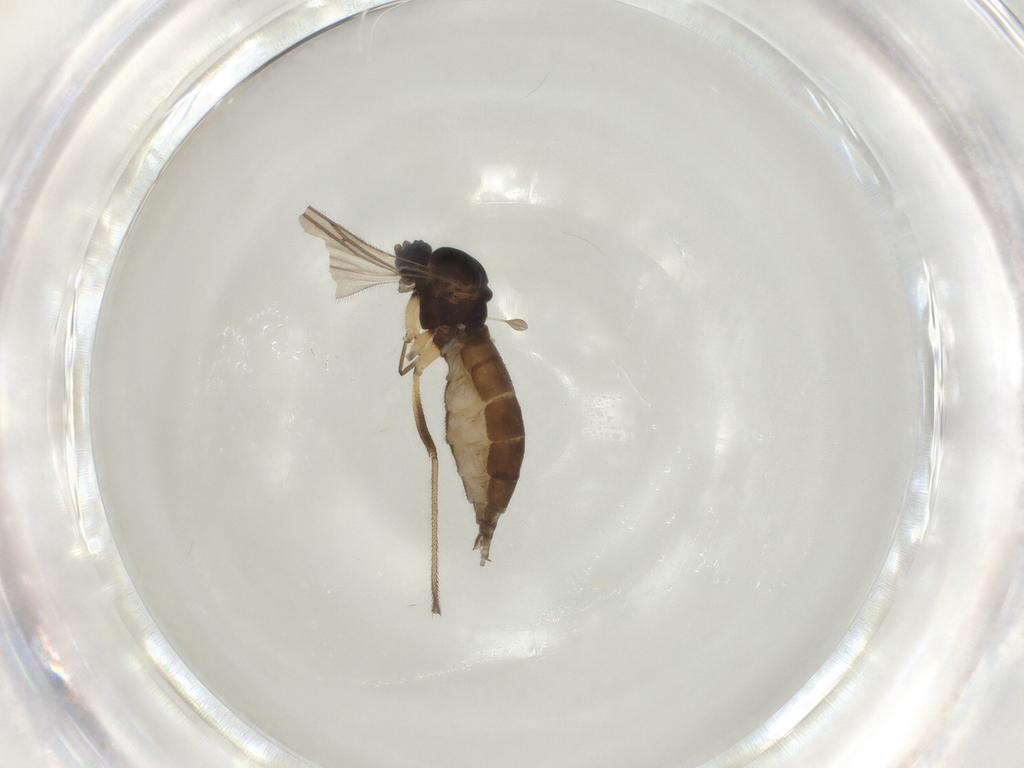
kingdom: Animalia
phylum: Arthropoda
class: Insecta
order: Diptera
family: Sciaridae
